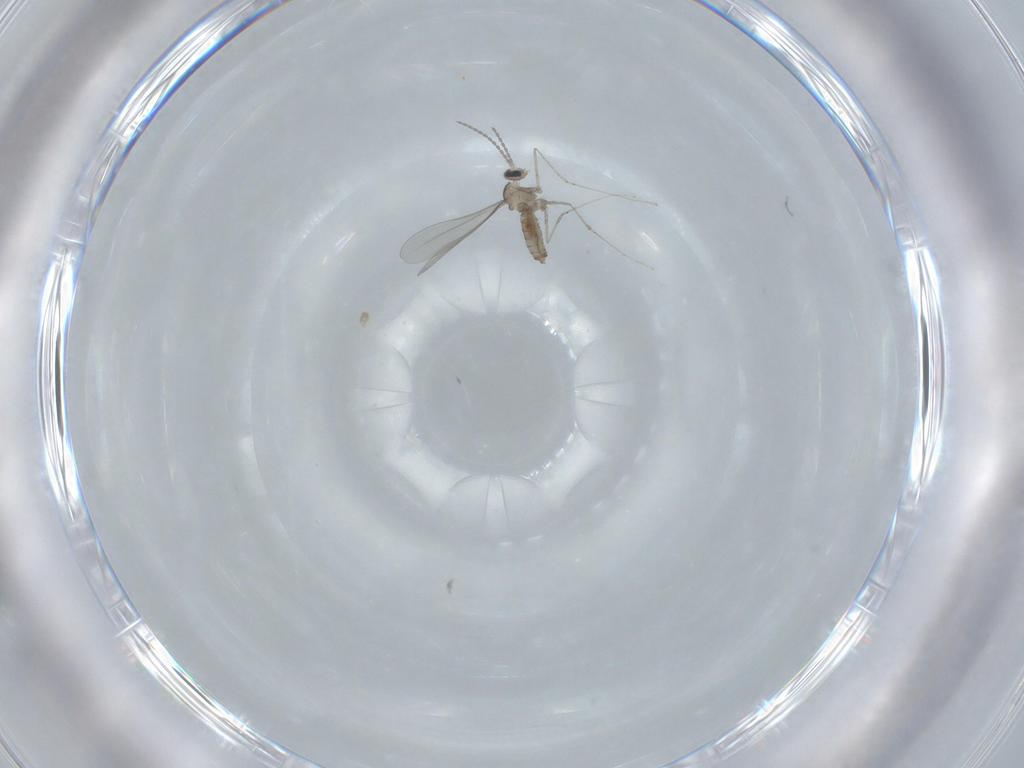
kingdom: Animalia
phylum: Arthropoda
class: Insecta
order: Diptera
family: Cecidomyiidae
